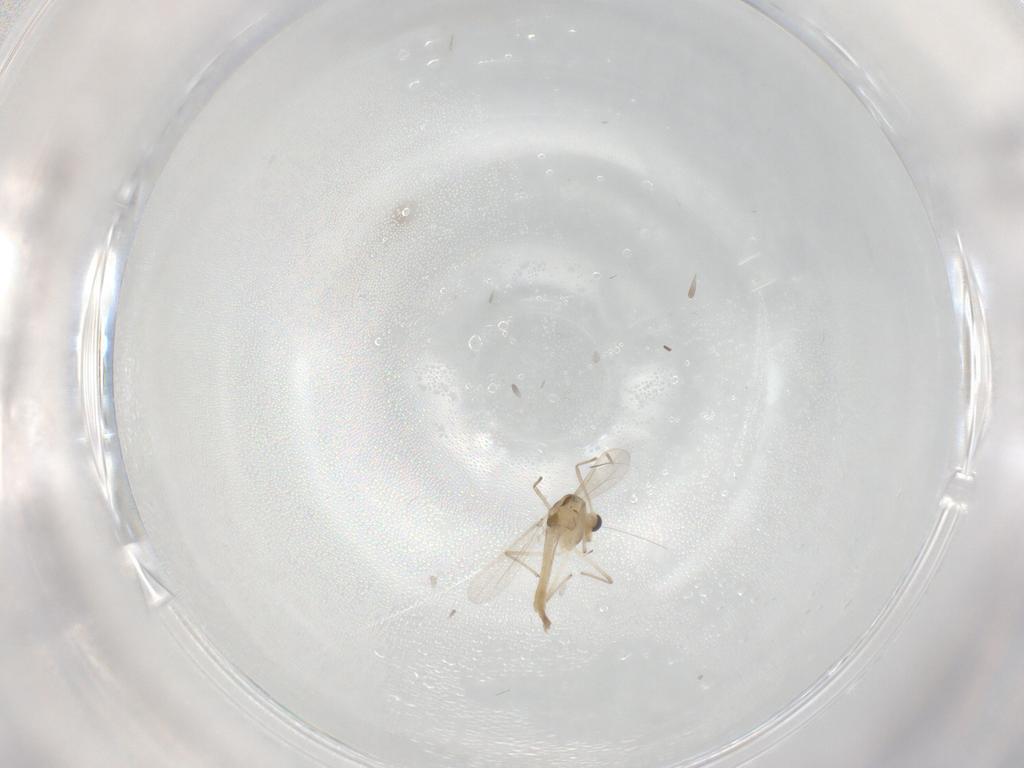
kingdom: Animalia
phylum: Arthropoda
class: Insecta
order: Diptera
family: Chironomidae
